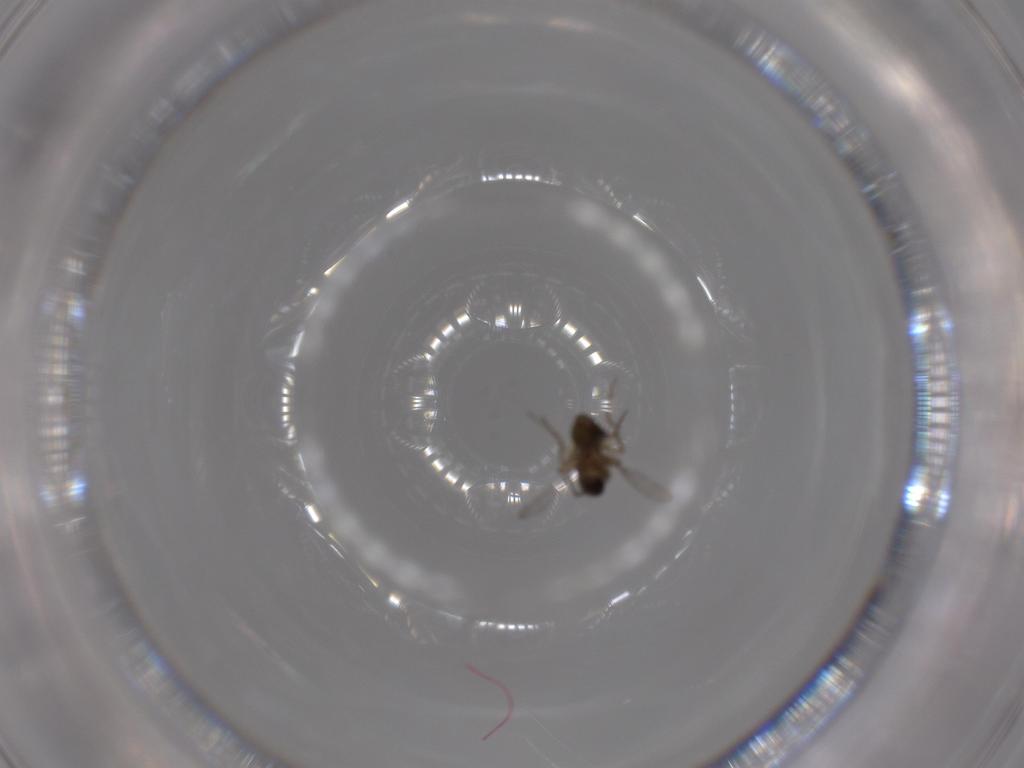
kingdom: Animalia
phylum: Arthropoda
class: Insecta
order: Diptera
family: Ceratopogonidae
